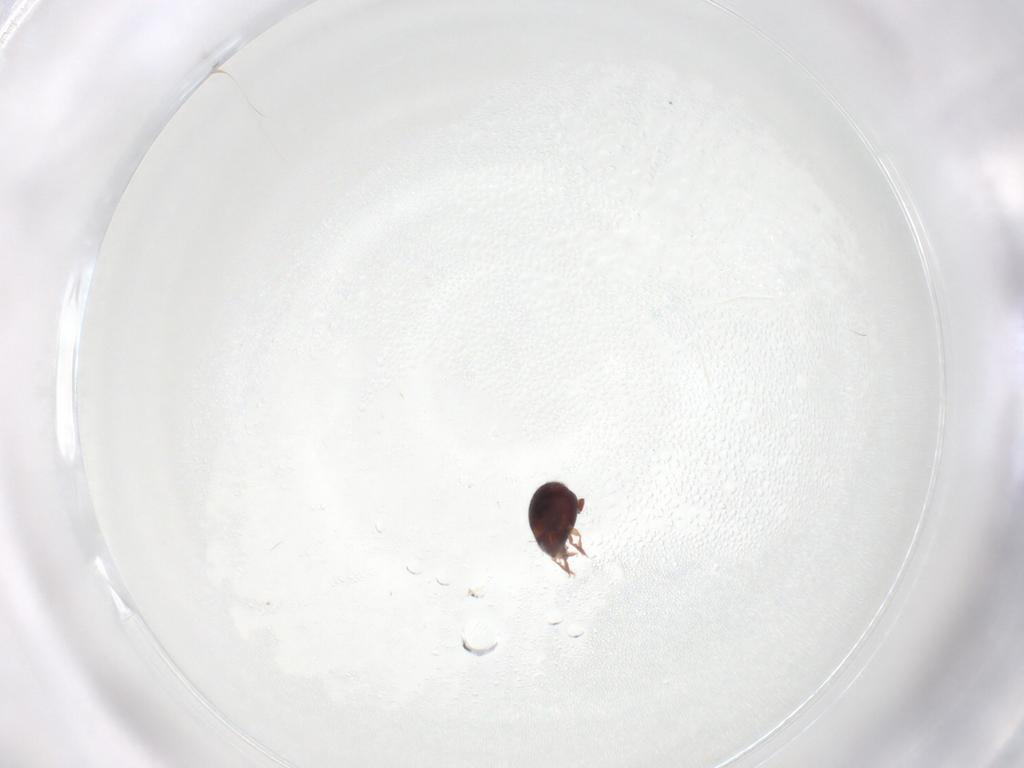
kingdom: Animalia
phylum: Arthropoda
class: Arachnida
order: Sarcoptiformes
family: Humerobatidae
